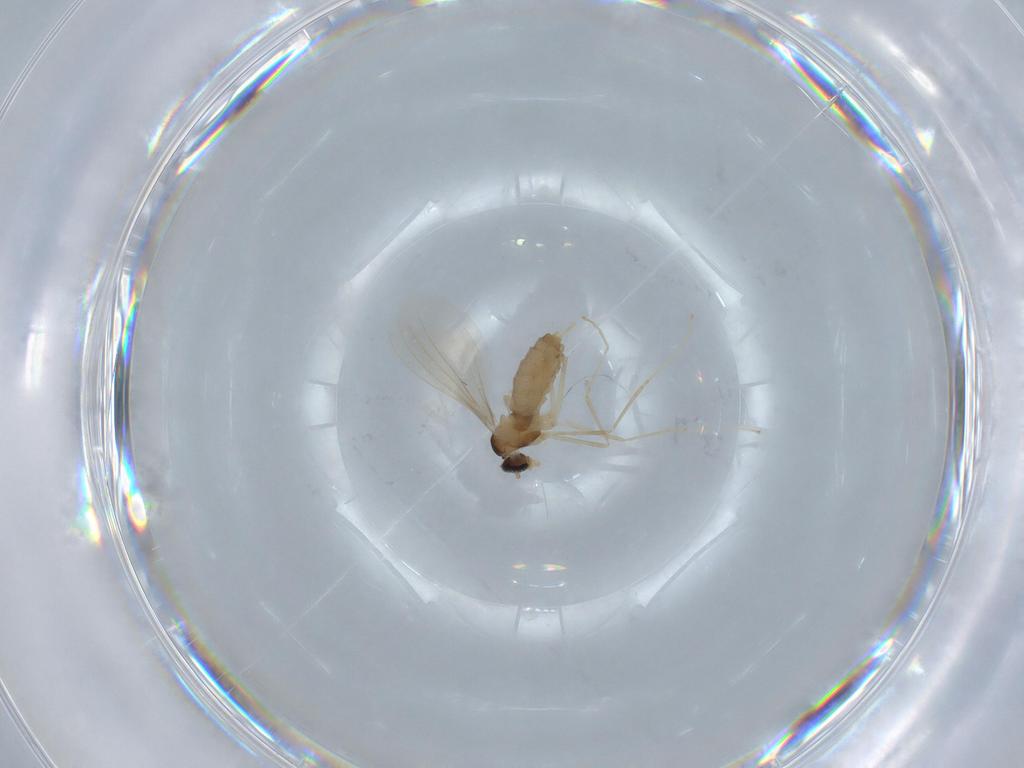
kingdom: Animalia
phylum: Arthropoda
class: Insecta
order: Diptera
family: Cecidomyiidae
